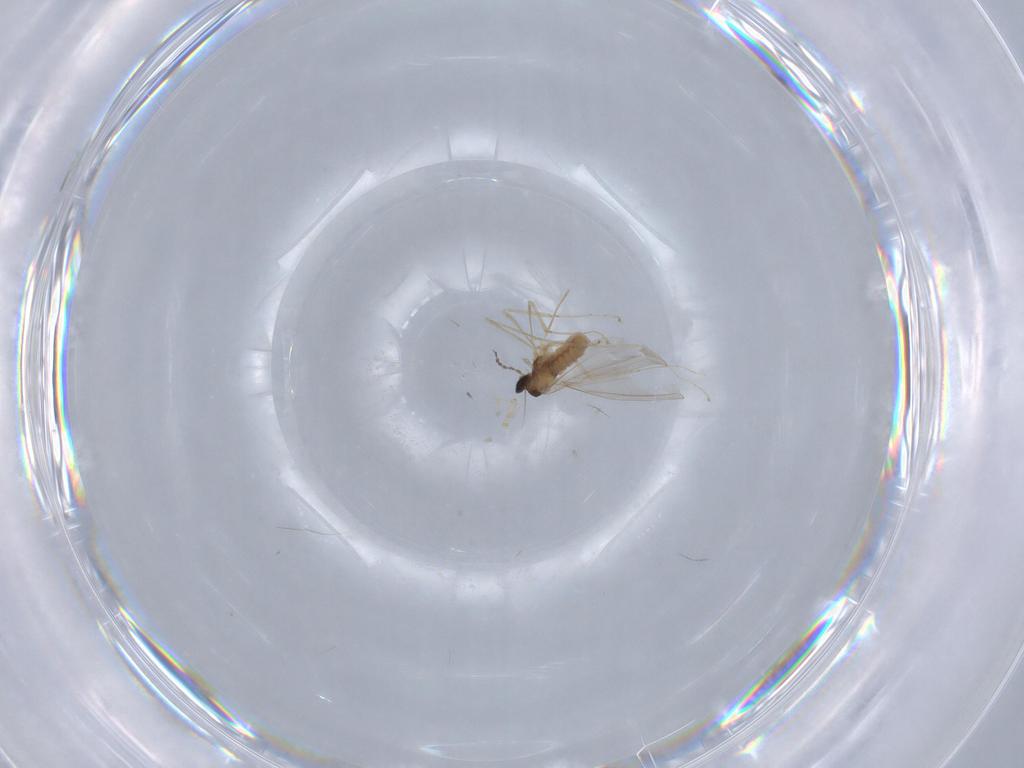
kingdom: Animalia
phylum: Arthropoda
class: Insecta
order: Diptera
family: Cecidomyiidae
